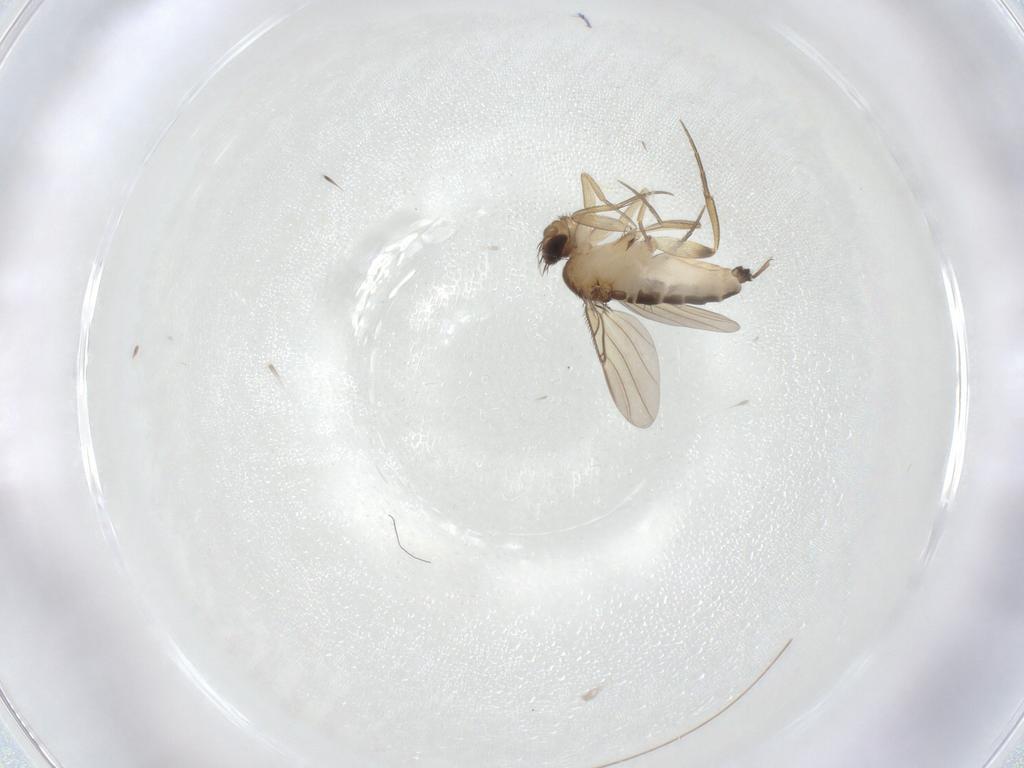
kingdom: Animalia
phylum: Arthropoda
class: Insecta
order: Diptera
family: Phoridae
